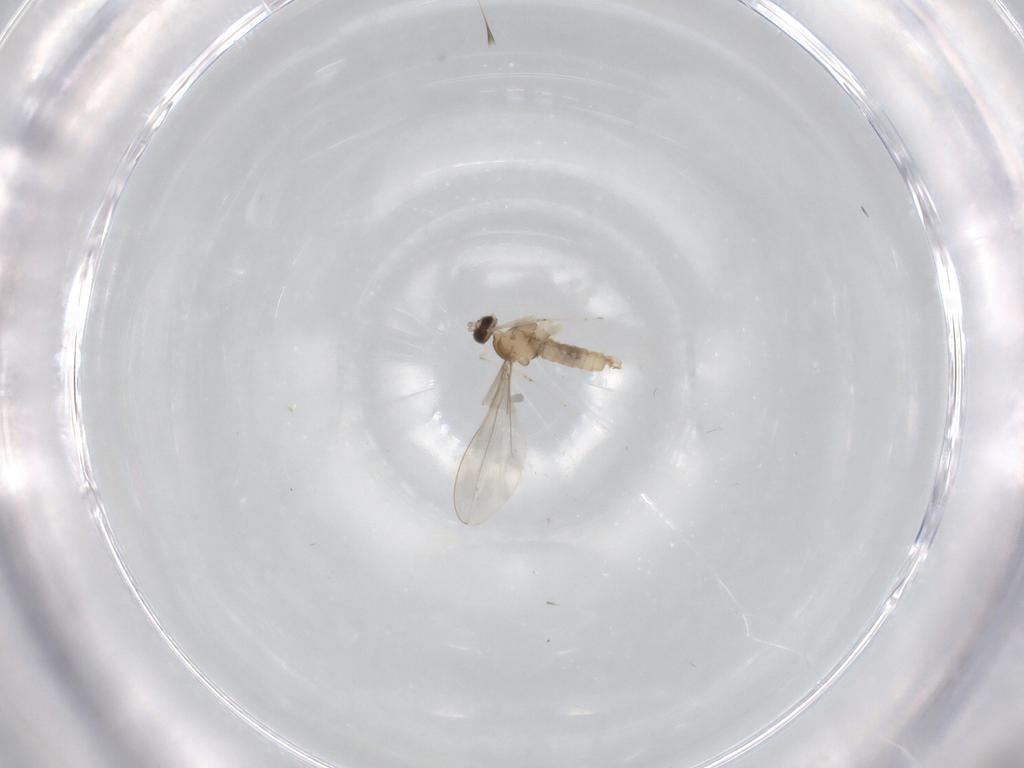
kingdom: Animalia
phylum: Arthropoda
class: Insecta
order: Diptera
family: Cecidomyiidae
